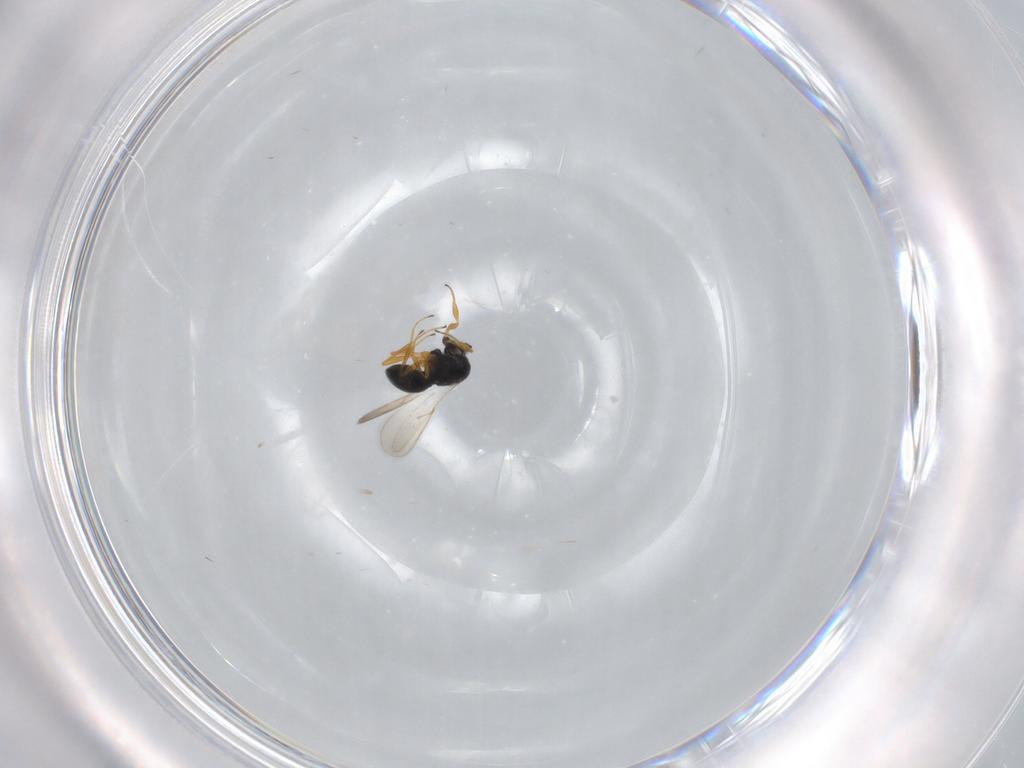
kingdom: Animalia
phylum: Arthropoda
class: Insecta
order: Hymenoptera
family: Scelionidae
